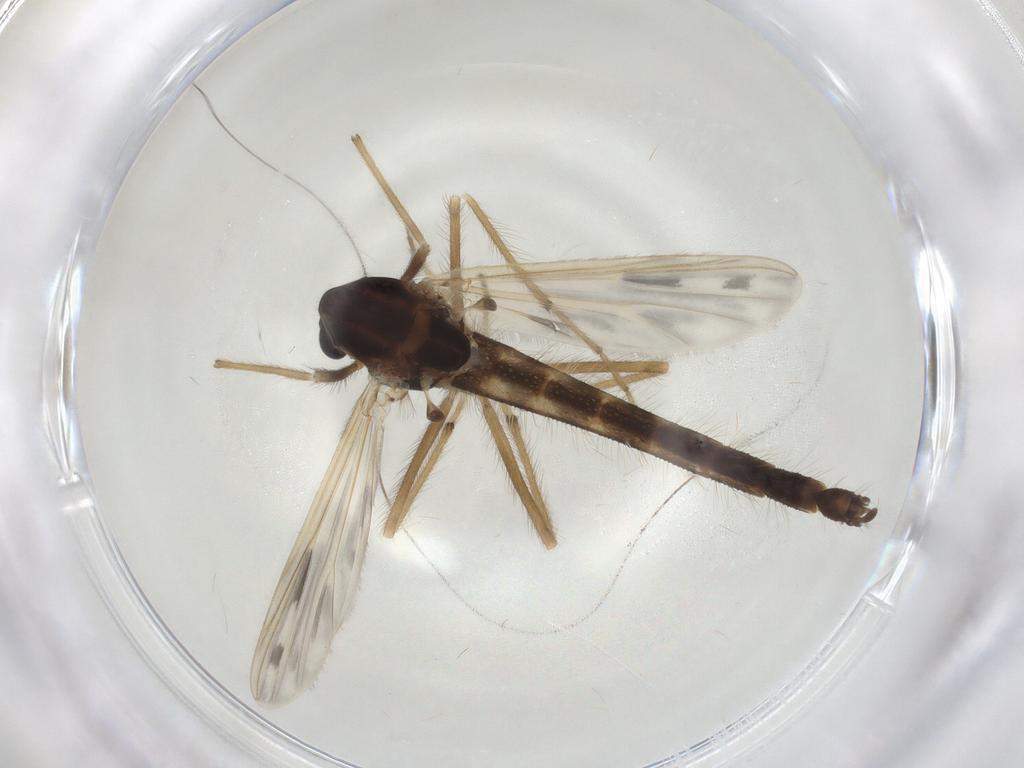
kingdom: Animalia
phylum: Arthropoda
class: Insecta
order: Diptera
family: Chironomidae
